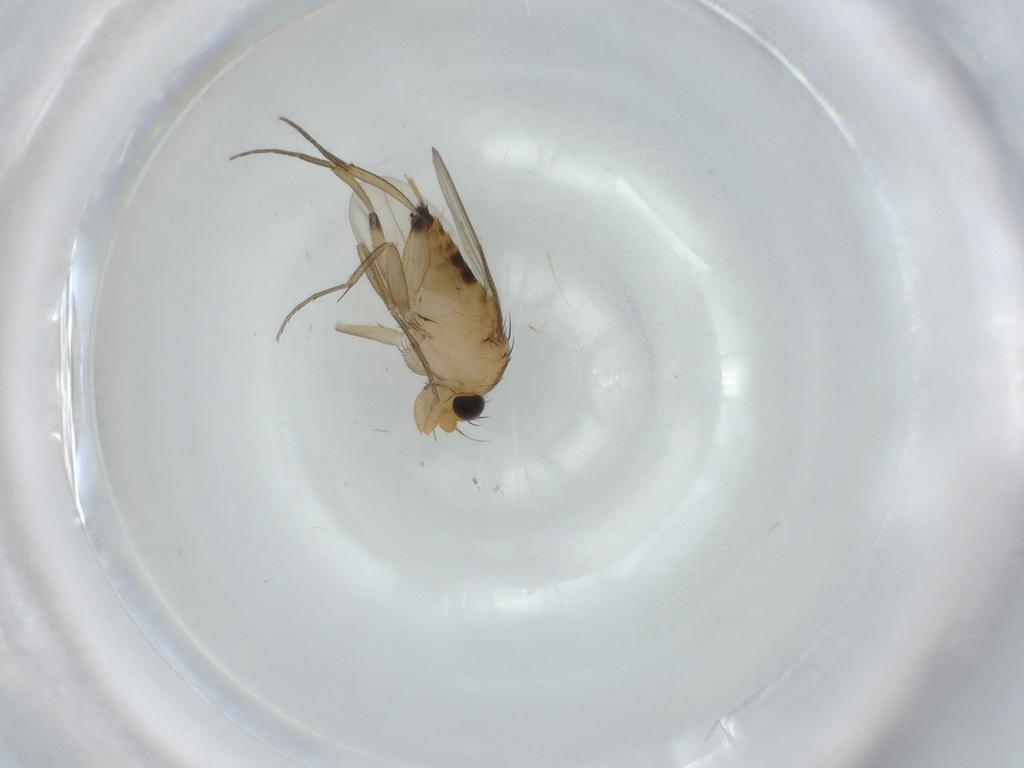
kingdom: Animalia
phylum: Arthropoda
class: Insecta
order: Diptera
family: Phoridae
